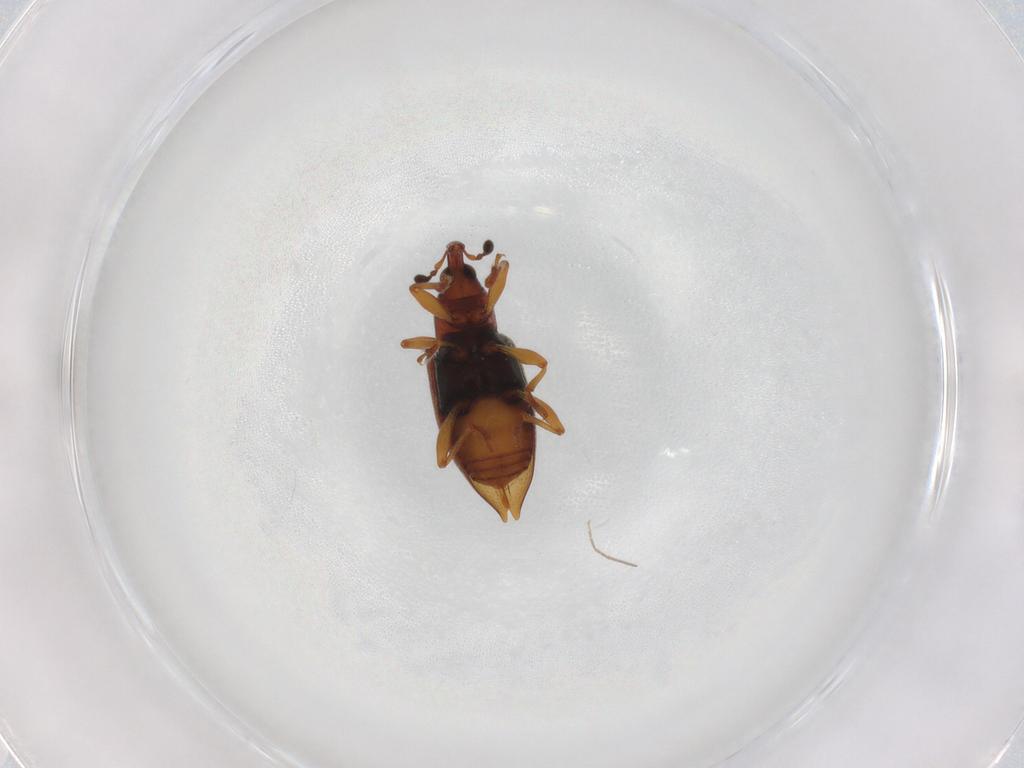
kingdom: Animalia
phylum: Arthropoda
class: Insecta
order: Coleoptera
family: Curculionidae
